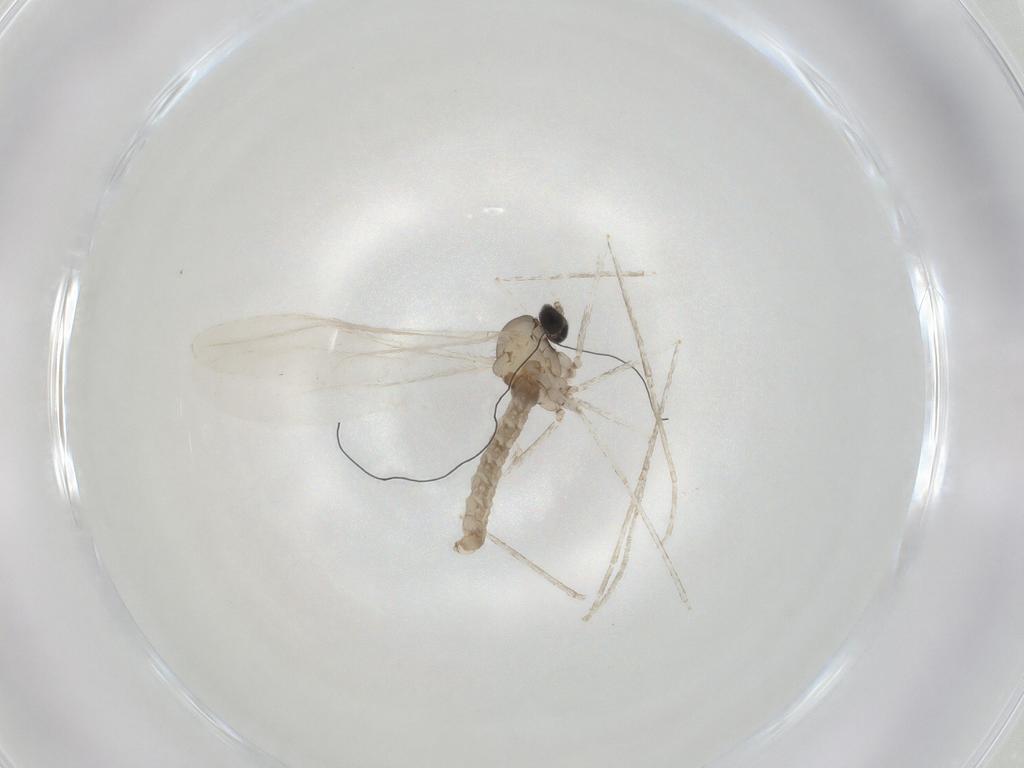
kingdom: Animalia
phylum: Arthropoda
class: Insecta
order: Diptera
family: Cecidomyiidae
